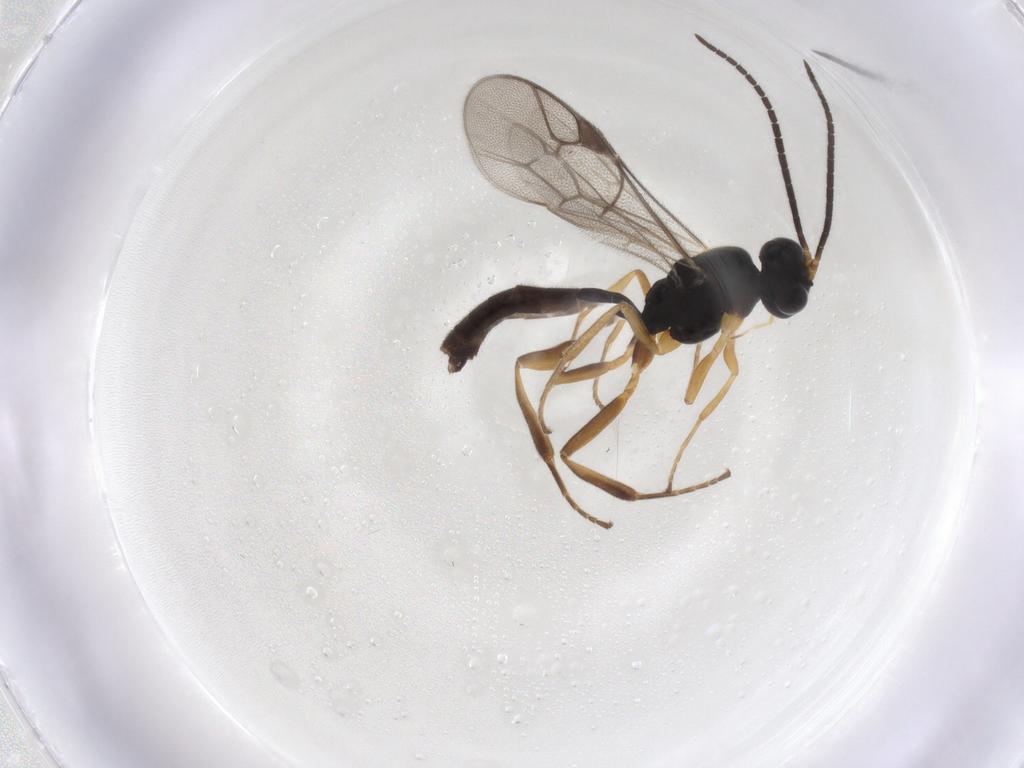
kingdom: Animalia
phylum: Arthropoda
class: Insecta
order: Hymenoptera
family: Ichneumonidae
